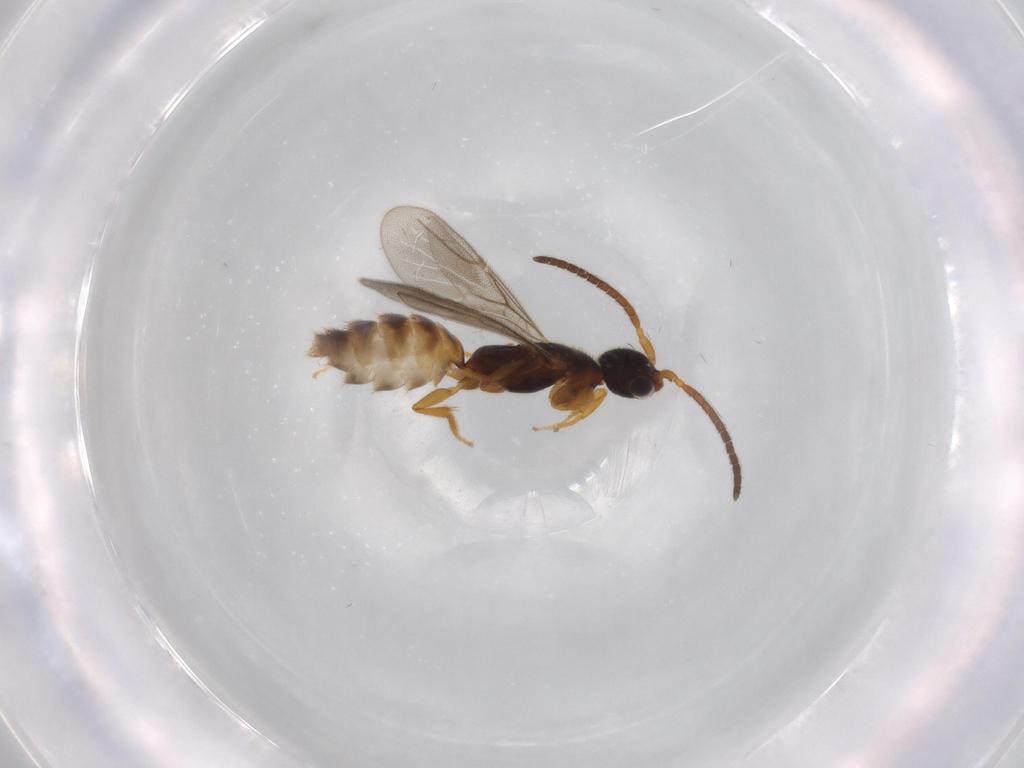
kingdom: Animalia
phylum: Arthropoda
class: Insecta
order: Hymenoptera
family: Bethylidae
